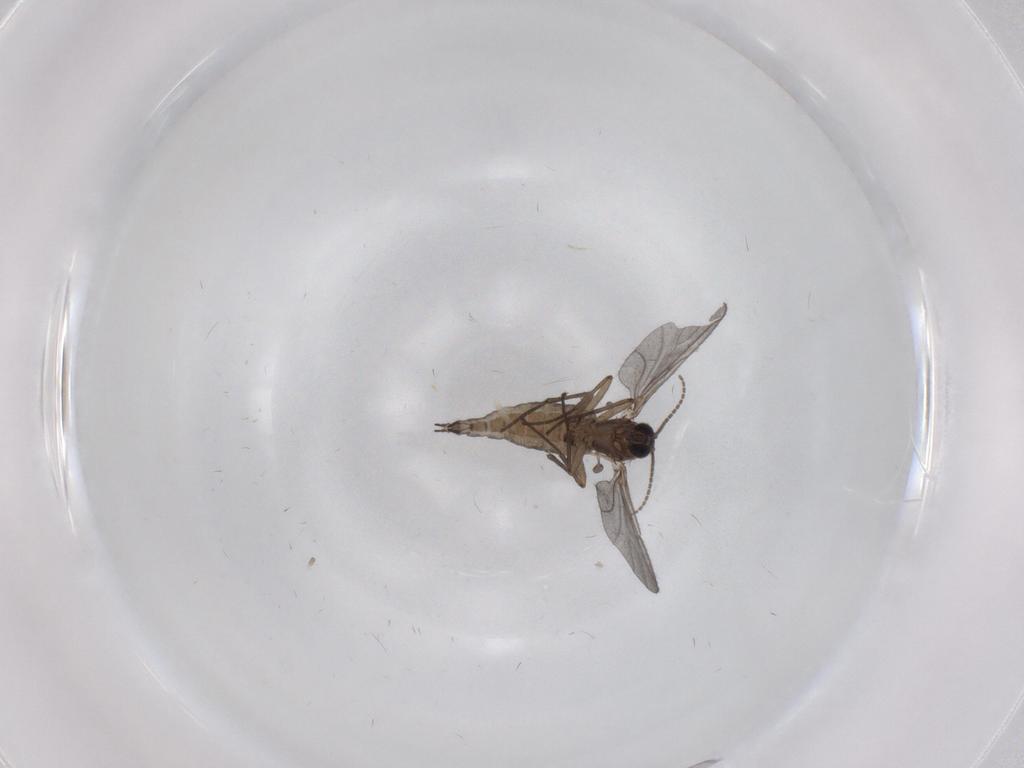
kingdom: Animalia
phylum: Arthropoda
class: Insecta
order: Diptera
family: Sciaridae
